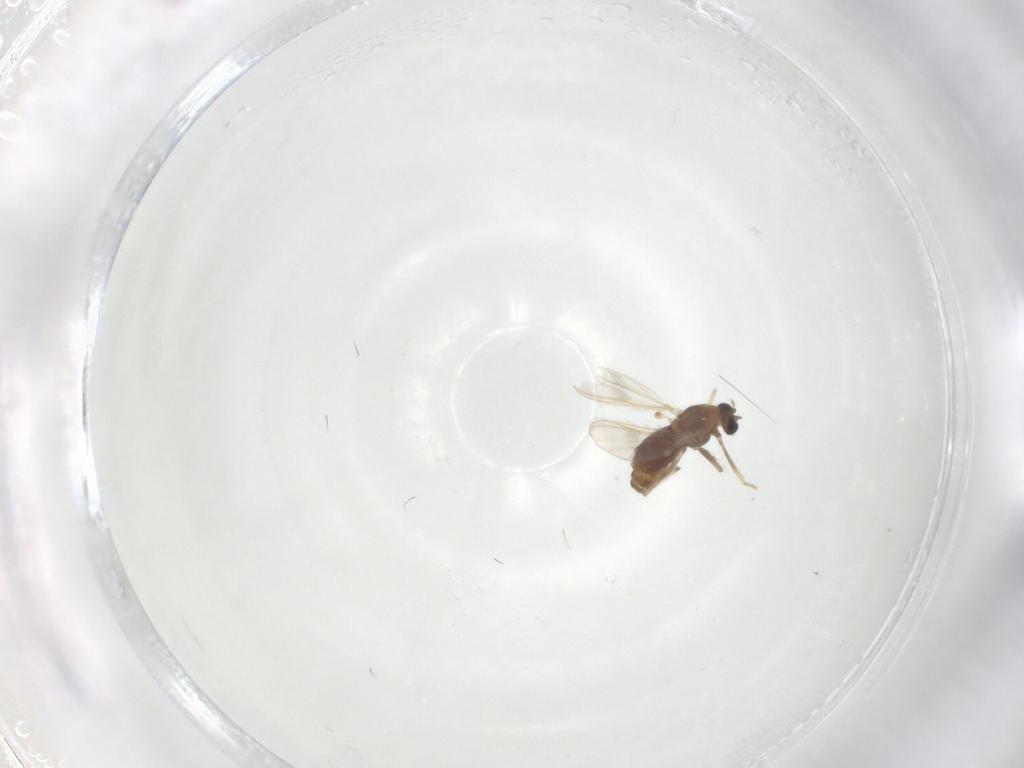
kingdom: Animalia
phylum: Arthropoda
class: Insecta
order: Diptera
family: Chironomidae
